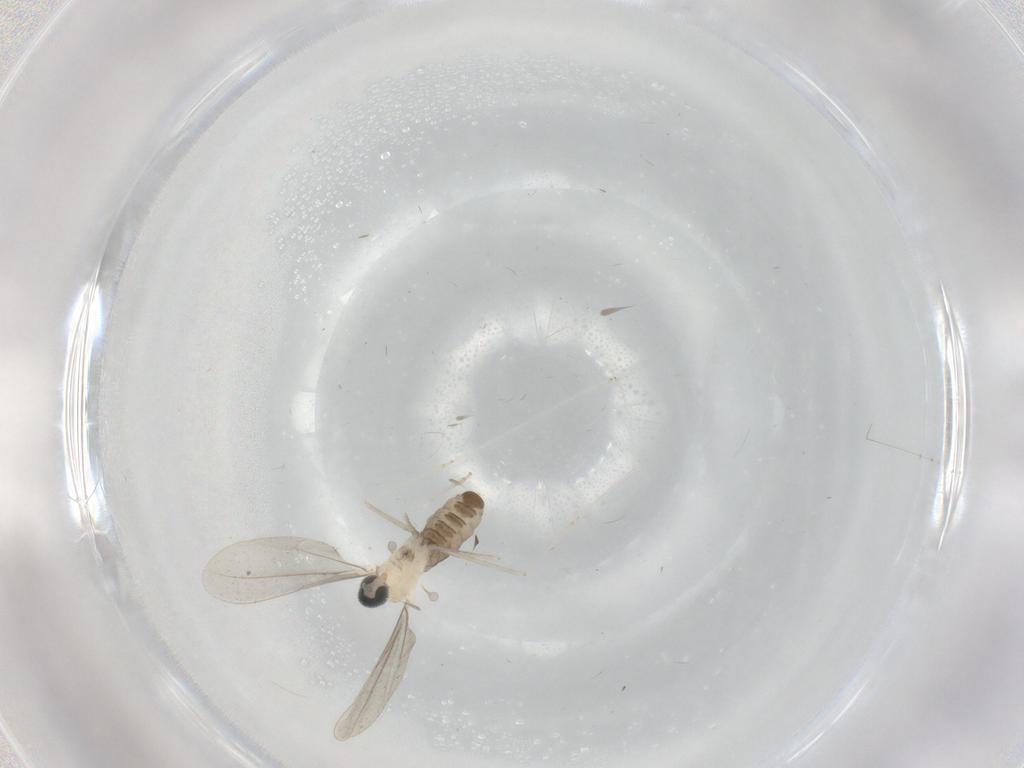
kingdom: Animalia
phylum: Arthropoda
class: Insecta
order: Diptera
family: Cecidomyiidae
